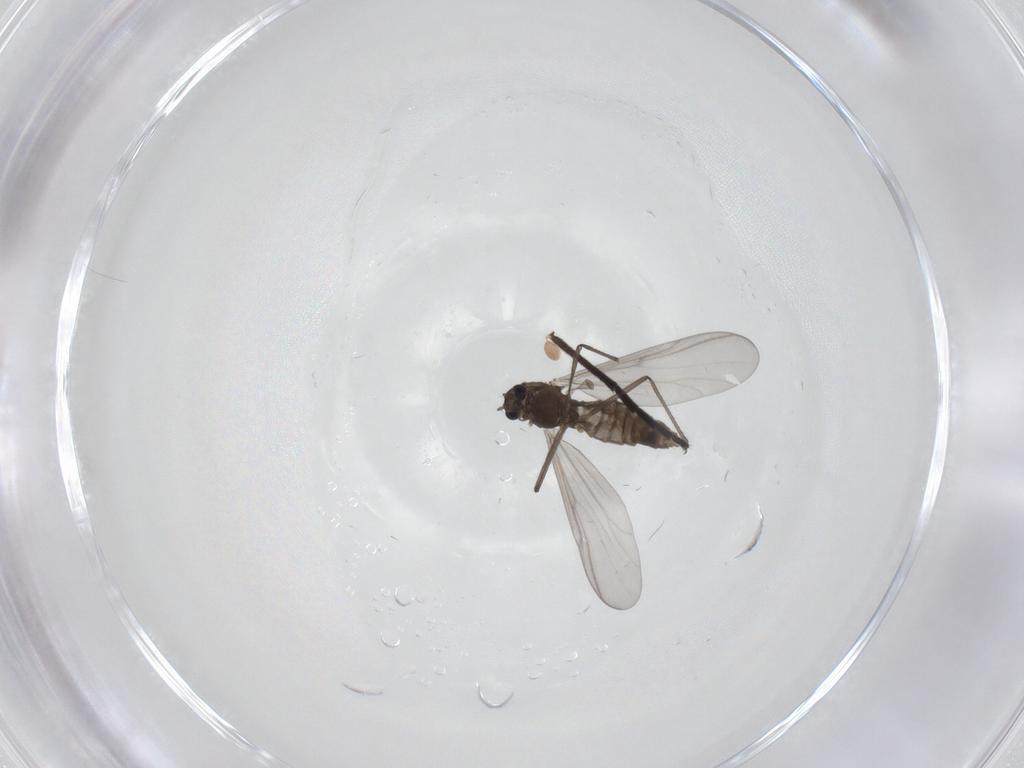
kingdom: Animalia
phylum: Arthropoda
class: Insecta
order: Diptera
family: Chironomidae
